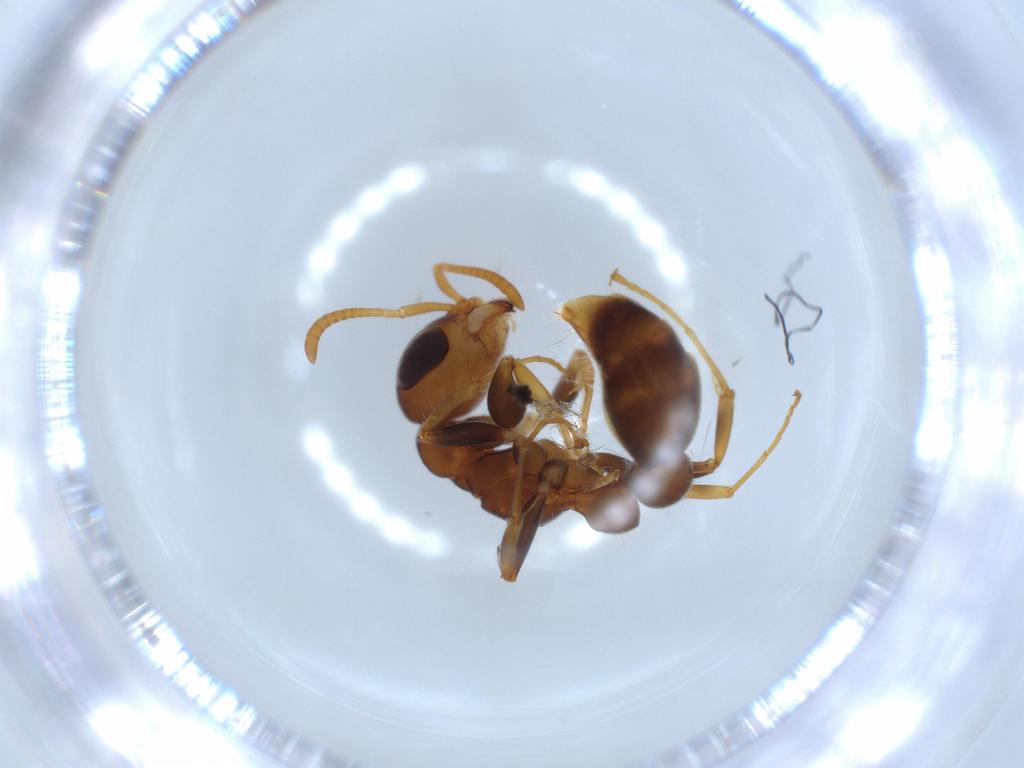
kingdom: Animalia
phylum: Arthropoda
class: Insecta
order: Hymenoptera
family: Formicidae
